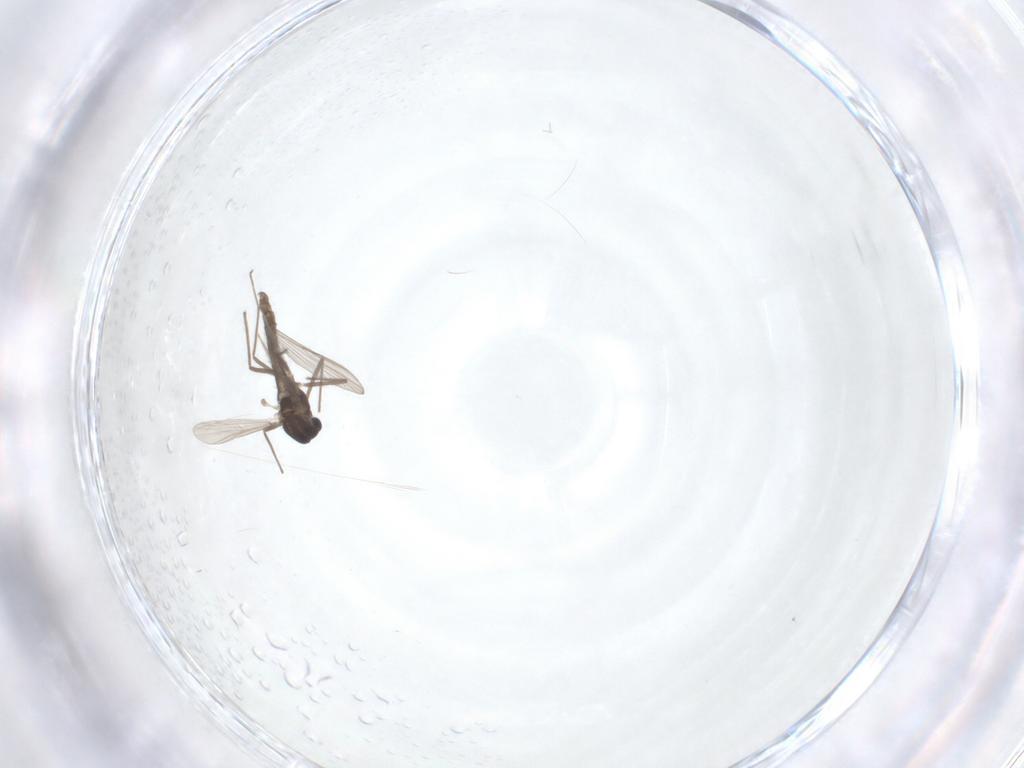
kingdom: Animalia
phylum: Arthropoda
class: Insecta
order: Diptera
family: Chironomidae
